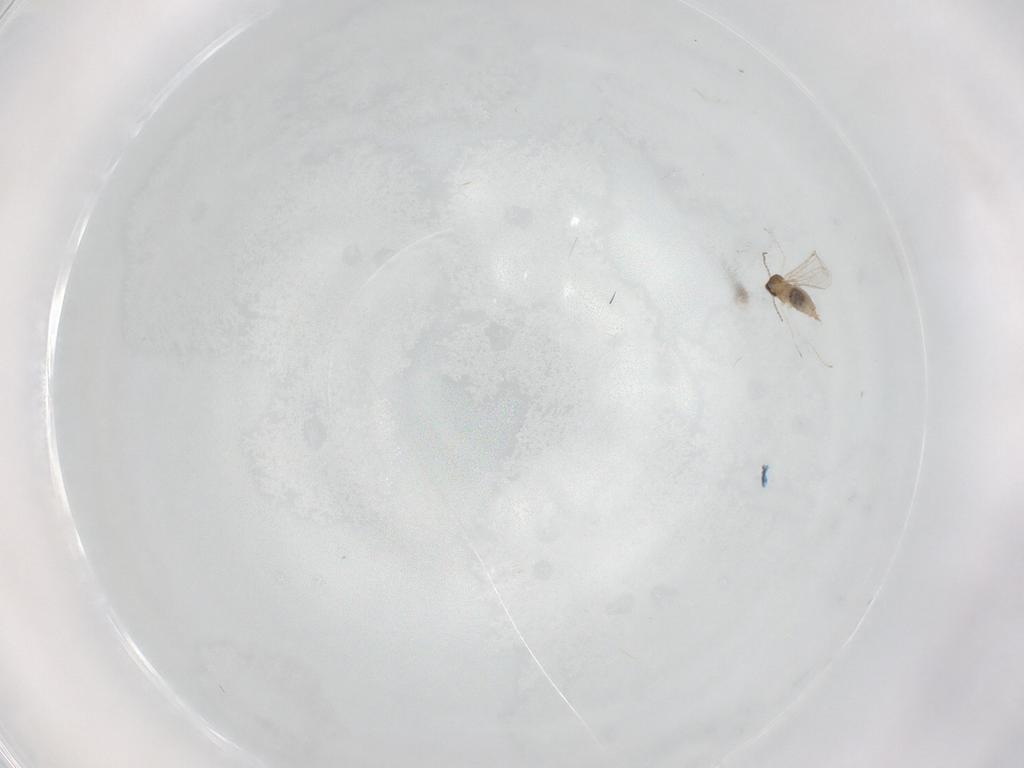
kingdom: Animalia
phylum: Arthropoda
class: Insecta
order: Diptera
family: Cecidomyiidae
